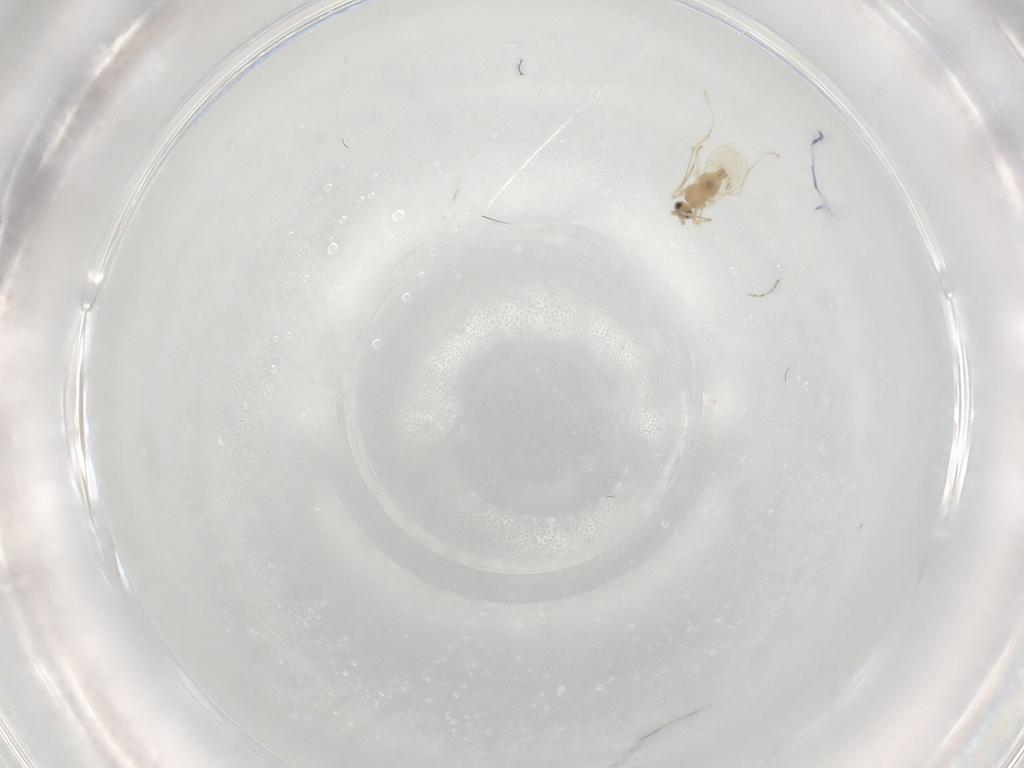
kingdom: Animalia
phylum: Arthropoda
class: Insecta
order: Diptera
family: Cecidomyiidae
